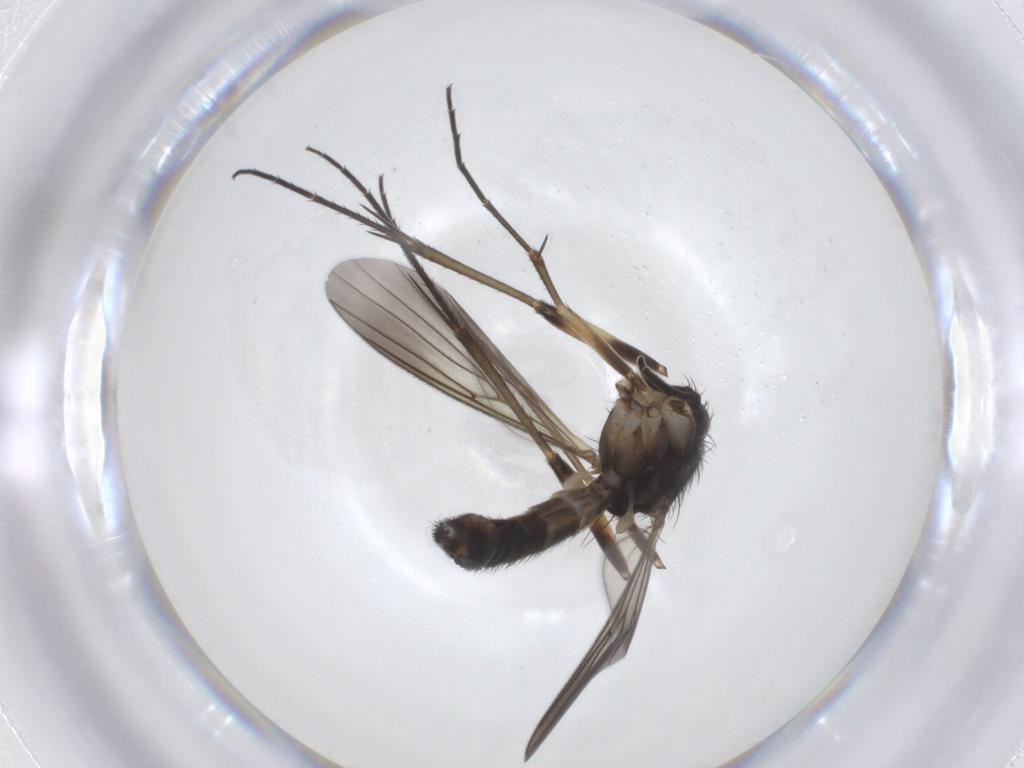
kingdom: Animalia
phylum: Arthropoda
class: Insecta
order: Diptera
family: Mycetophilidae
